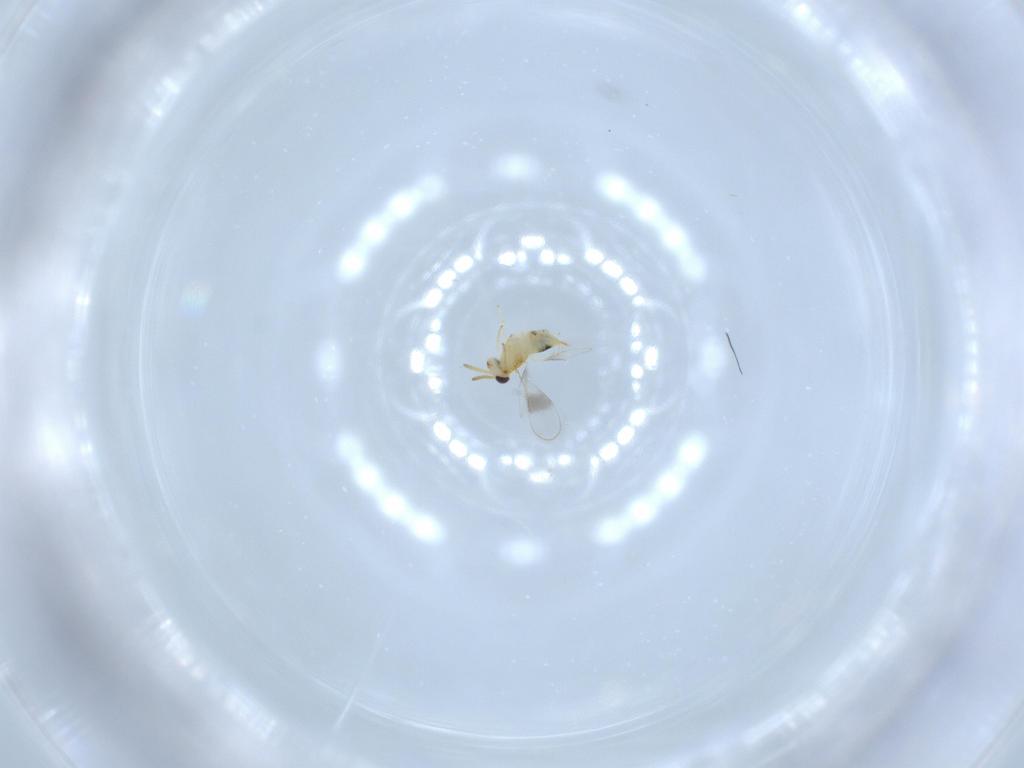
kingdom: Animalia
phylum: Arthropoda
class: Insecta
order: Hymenoptera
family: Aphelinidae
